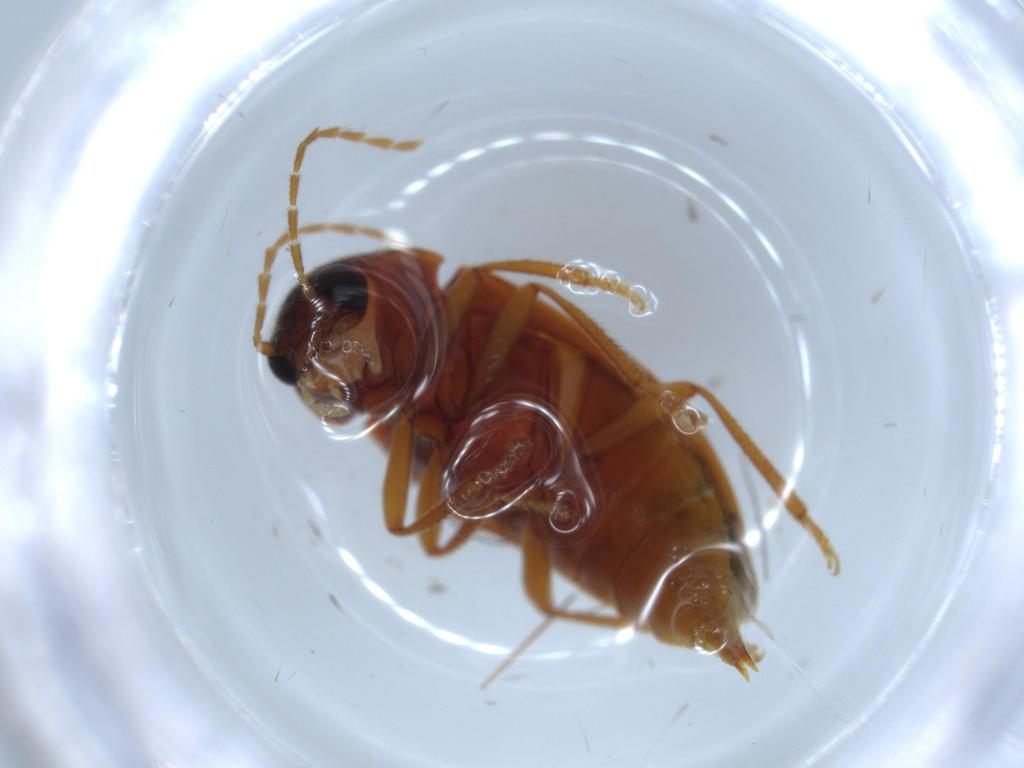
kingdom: Animalia
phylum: Arthropoda
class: Insecta
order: Coleoptera
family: Ptilodactylidae
